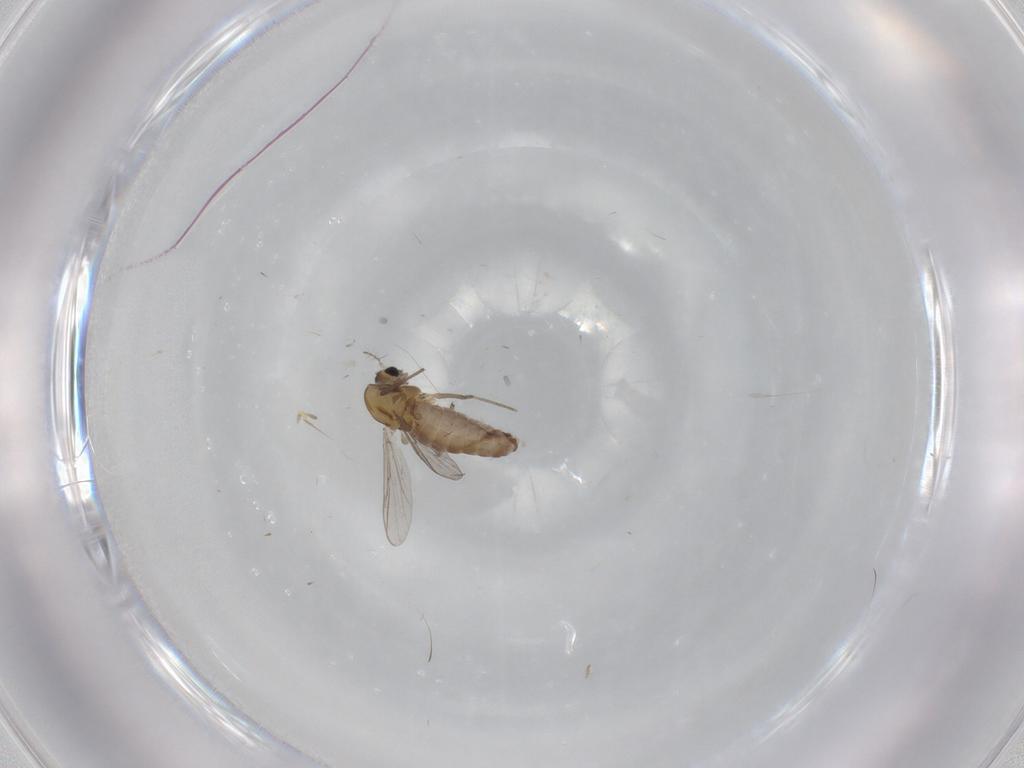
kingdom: Animalia
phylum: Arthropoda
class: Insecta
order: Diptera
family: Chironomidae
